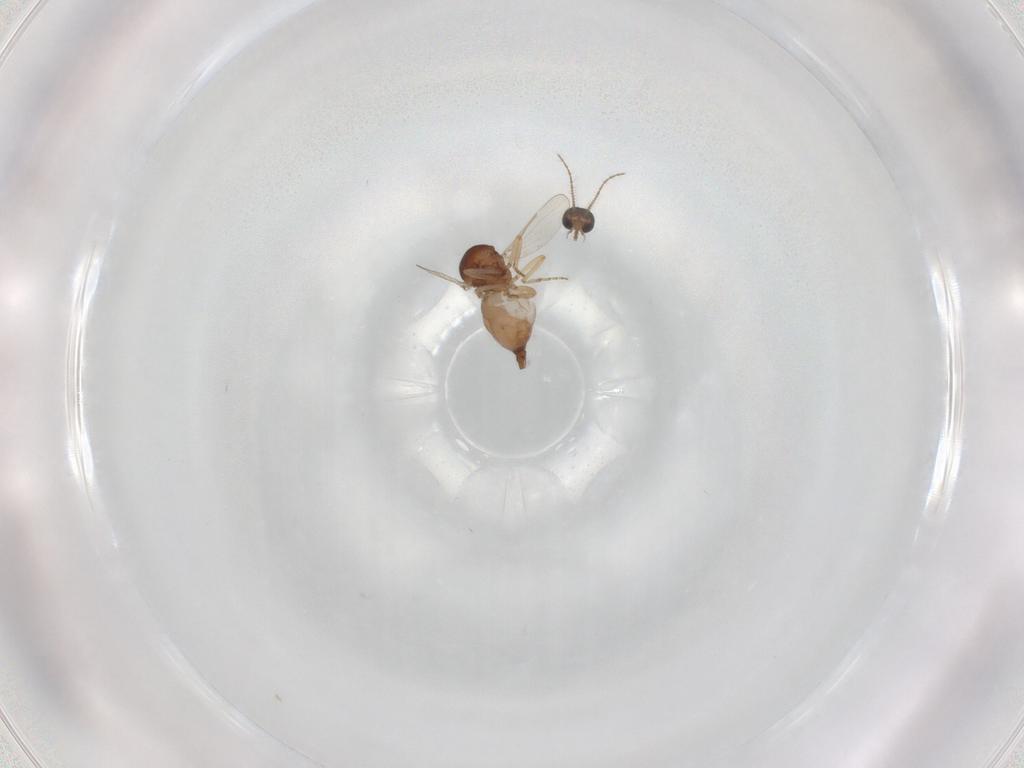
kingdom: Animalia
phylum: Arthropoda
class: Insecta
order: Diptera
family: Ceratopogonidae
